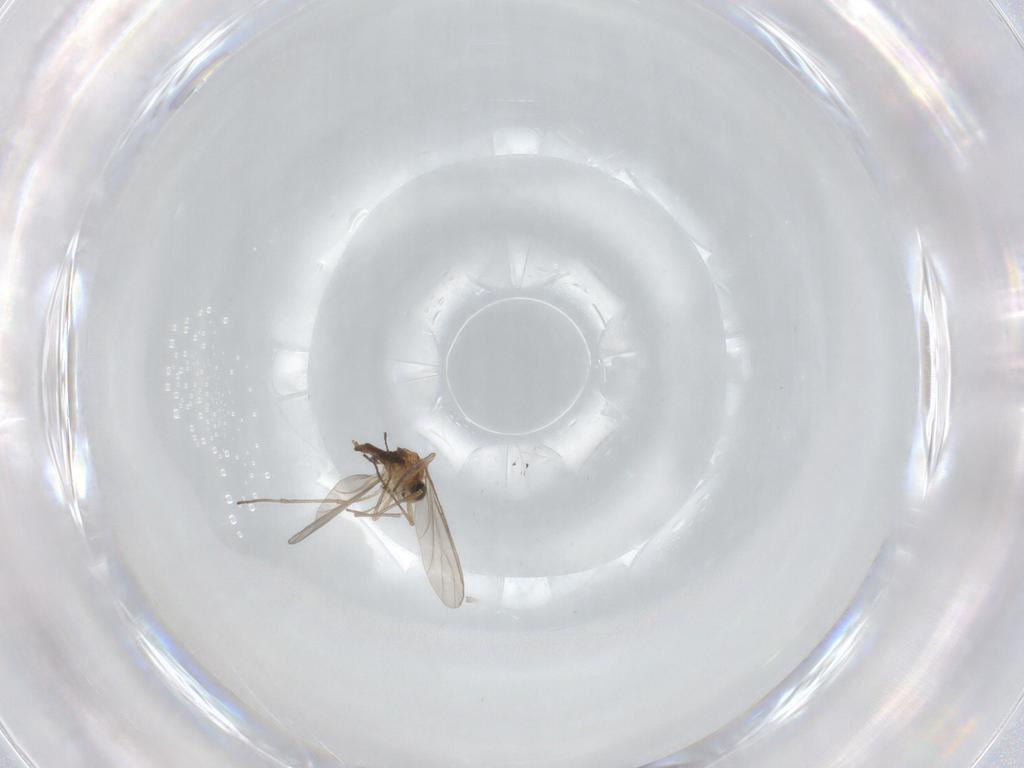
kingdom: Animalia
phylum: Arthropoda
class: Insecta
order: Diptera
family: Sciaridae
